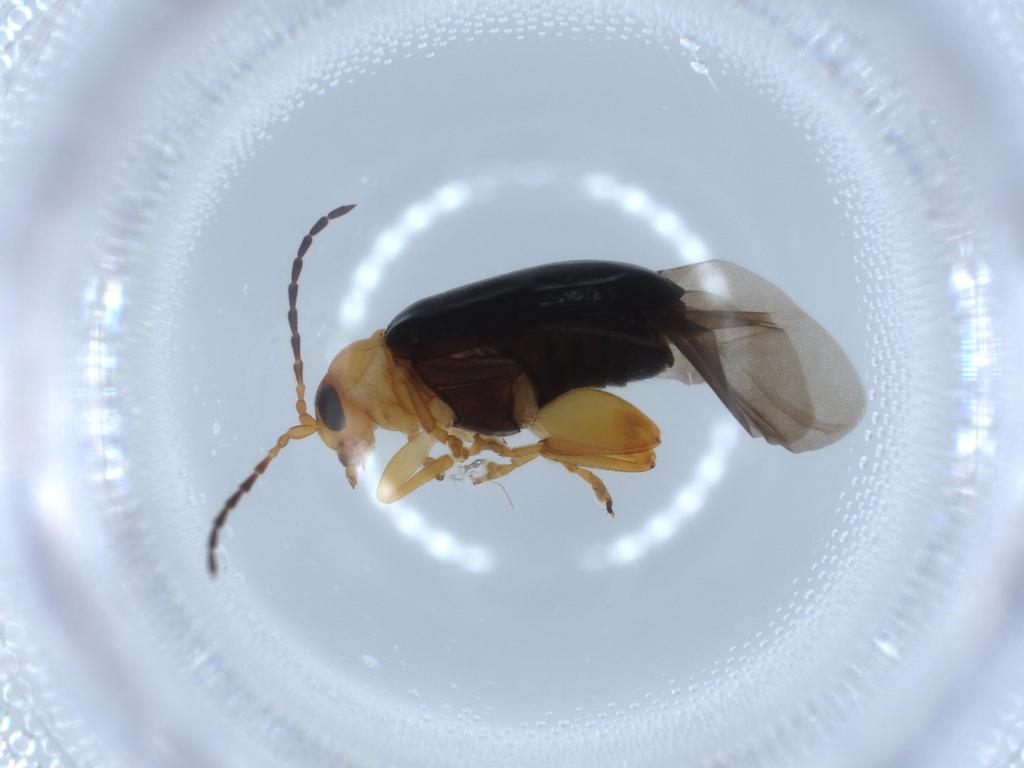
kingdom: Animalia
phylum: Arthropoda
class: Insecta
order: Coleoptera
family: Chrysomelidae
